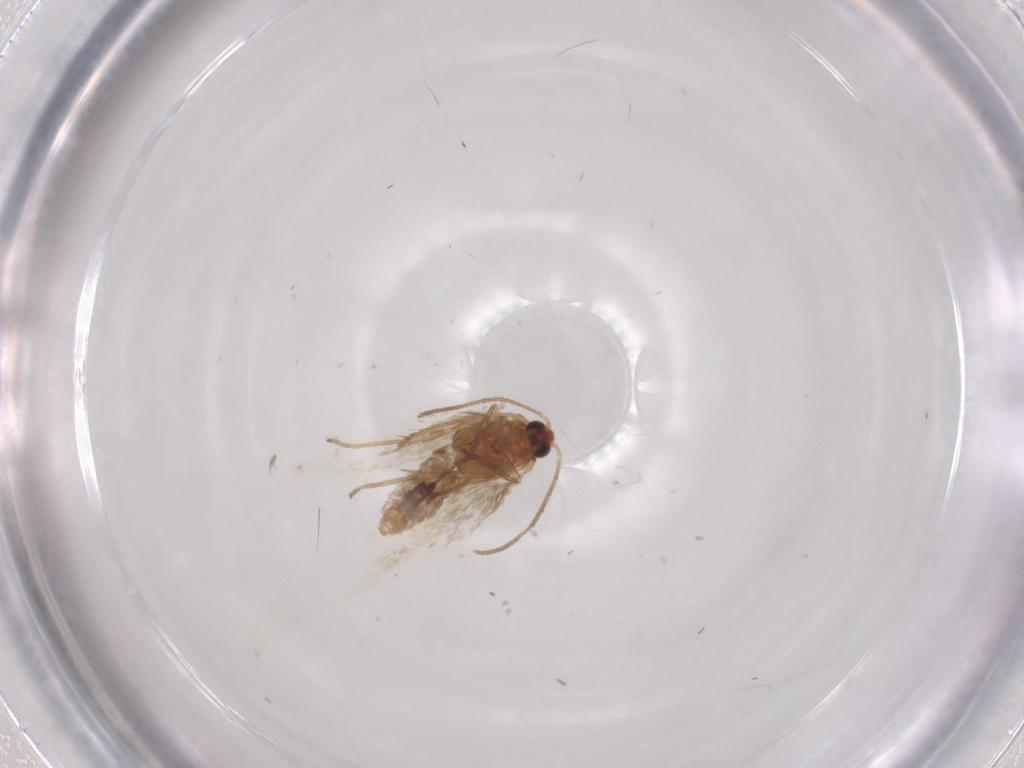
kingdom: Animalia
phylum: Arthropoda
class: Insecta
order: Lepidoptera
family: Nepticulidae
